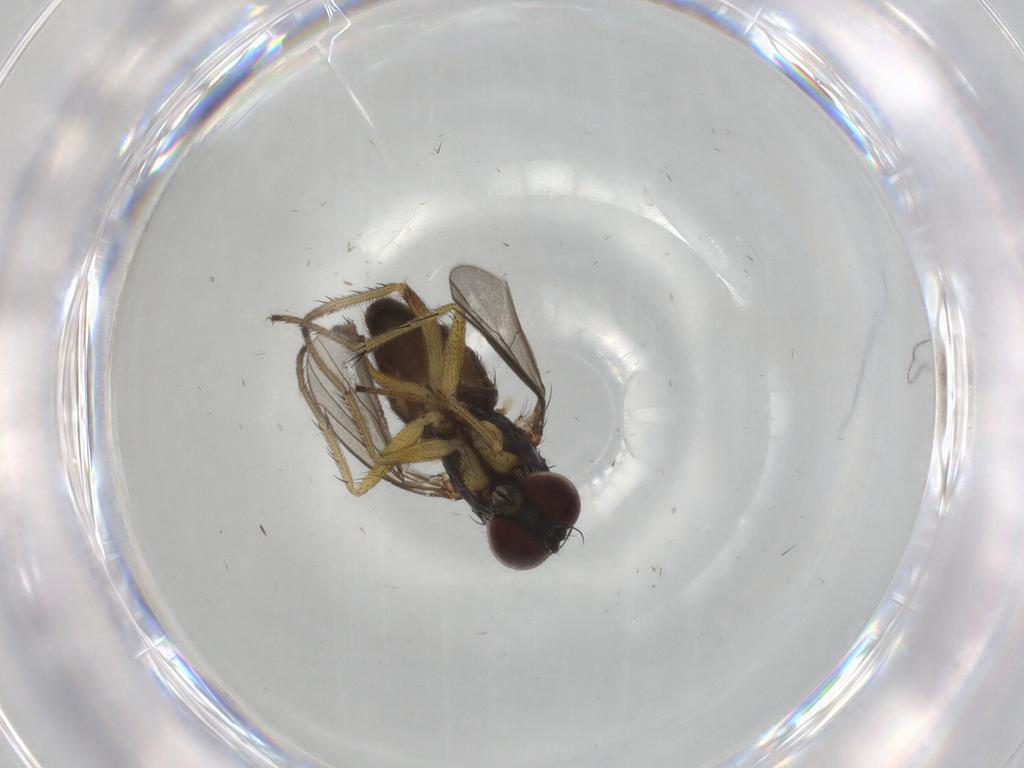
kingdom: Animalia
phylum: Arthropoda
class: Insecta
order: Diptera
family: Dolichopodidae
